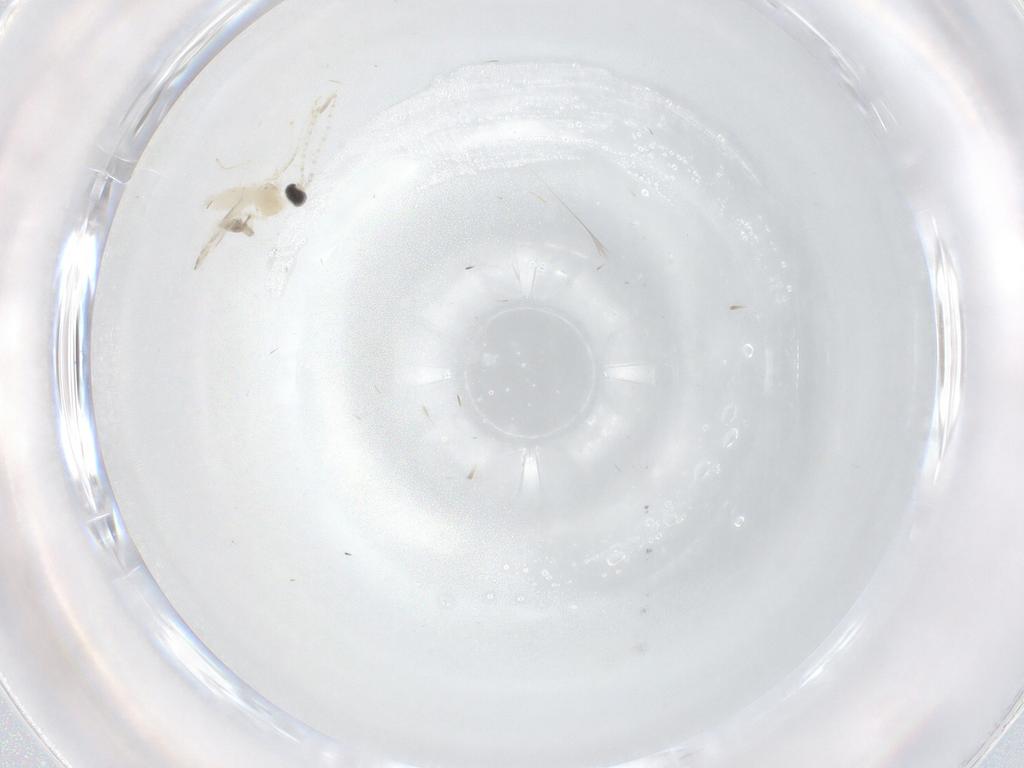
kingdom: Animalia
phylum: Arthropoda
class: Insecta
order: Diptera
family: Cecidomyiidae
